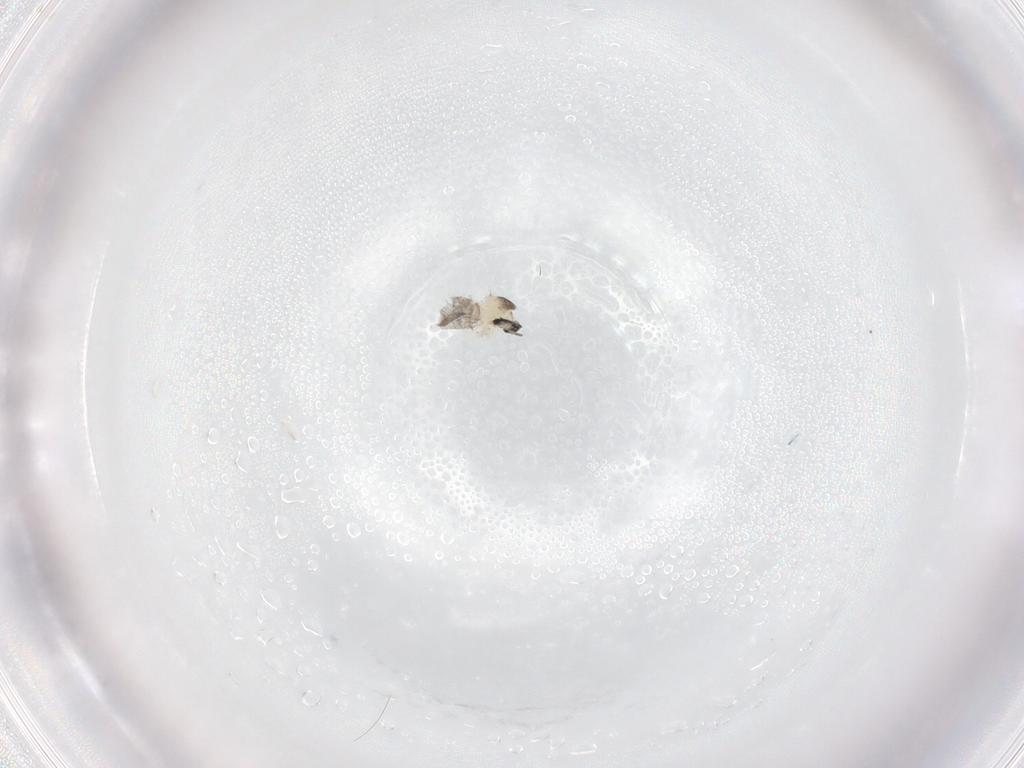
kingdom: Animalia
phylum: Arthropoda
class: Insecta
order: Diptera
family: Cecidomyiidae
